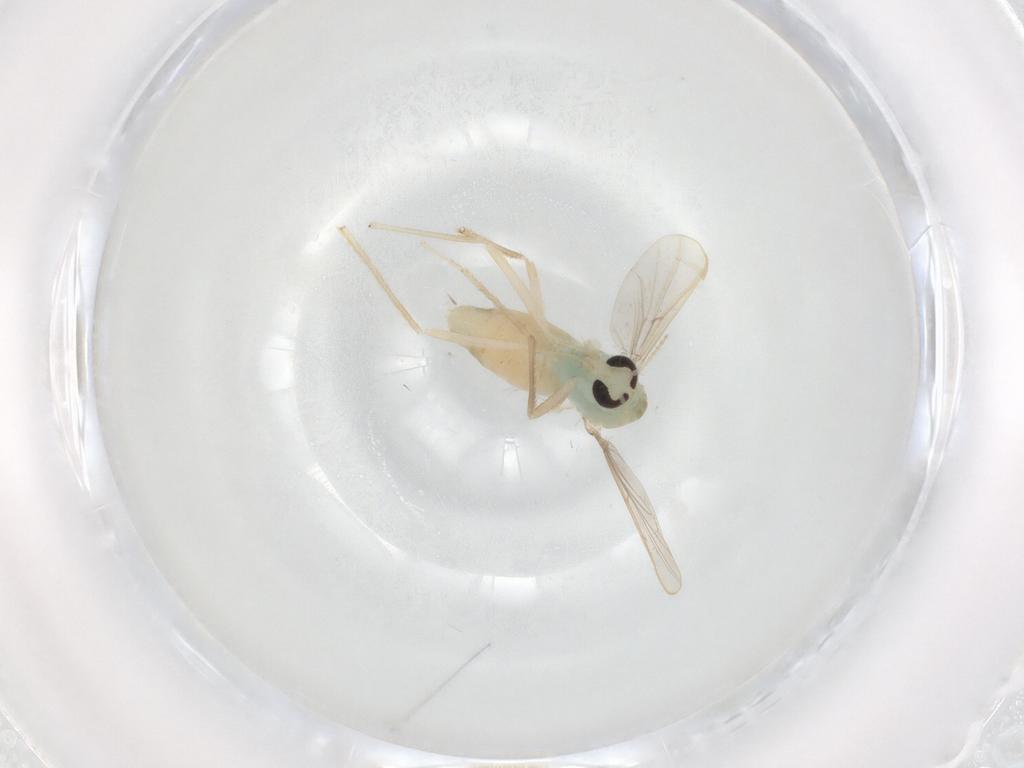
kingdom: Animalia
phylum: Arthropoda
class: Insecta
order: Diptera
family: Chironomidae
